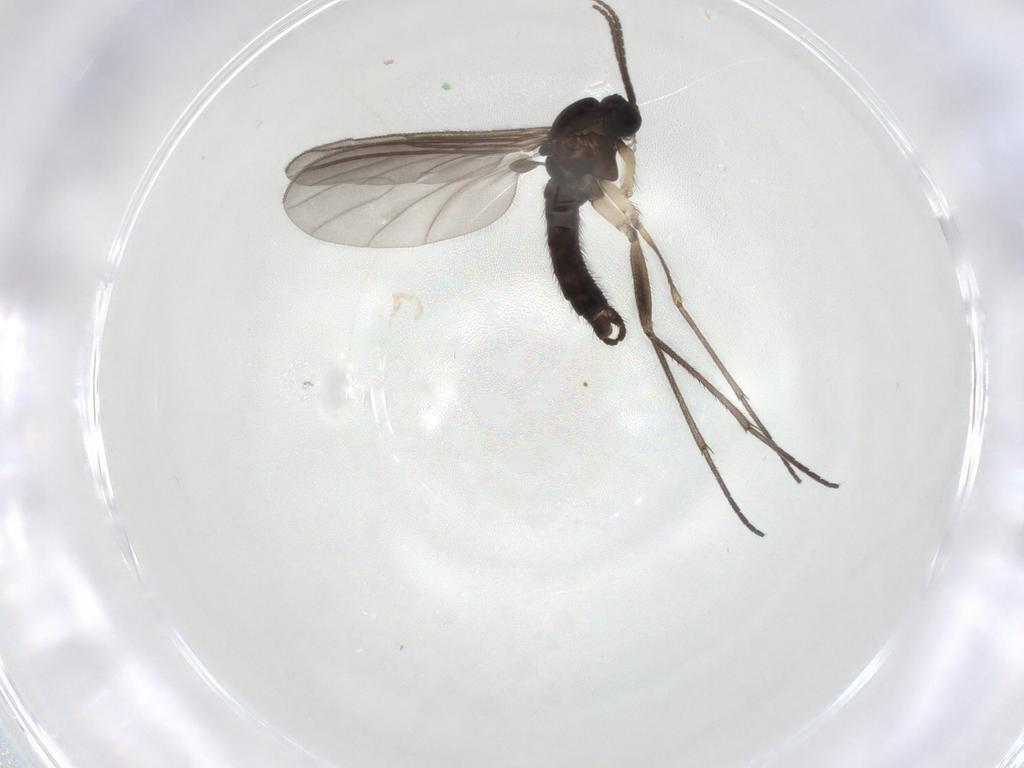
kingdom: Animalia
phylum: Arthropoda
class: Insecta
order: Diptera
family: Sciaridae
